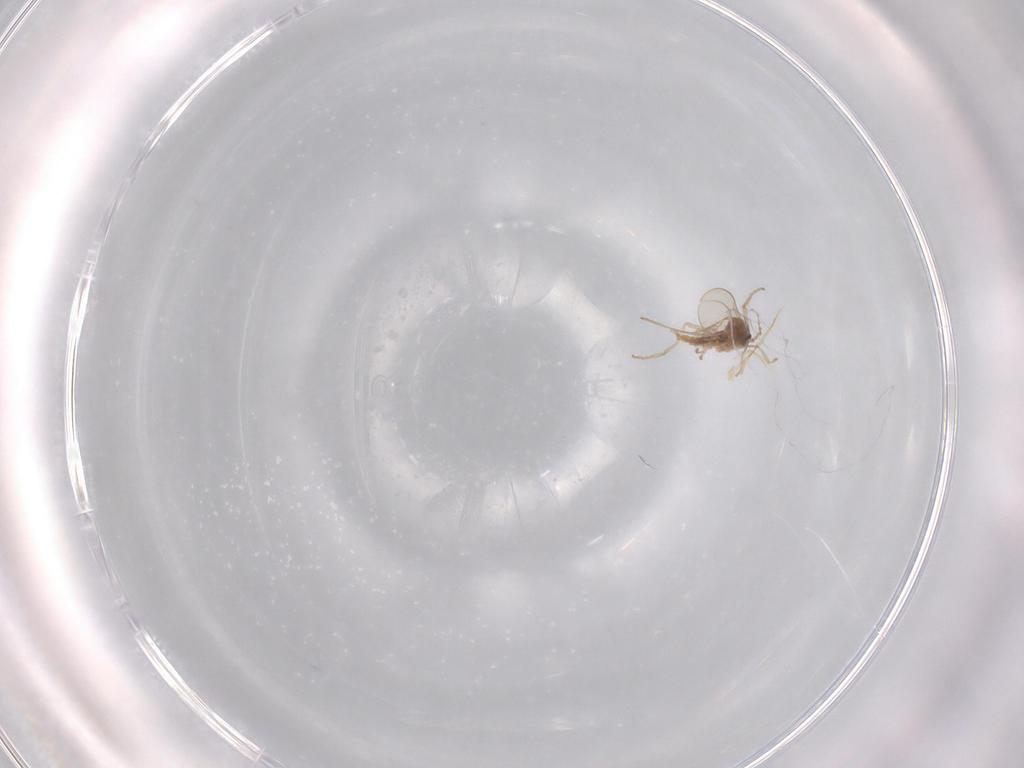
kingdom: Animalia
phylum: Arthropoda
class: Insecta
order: Diptera
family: Cecidomyiidae
